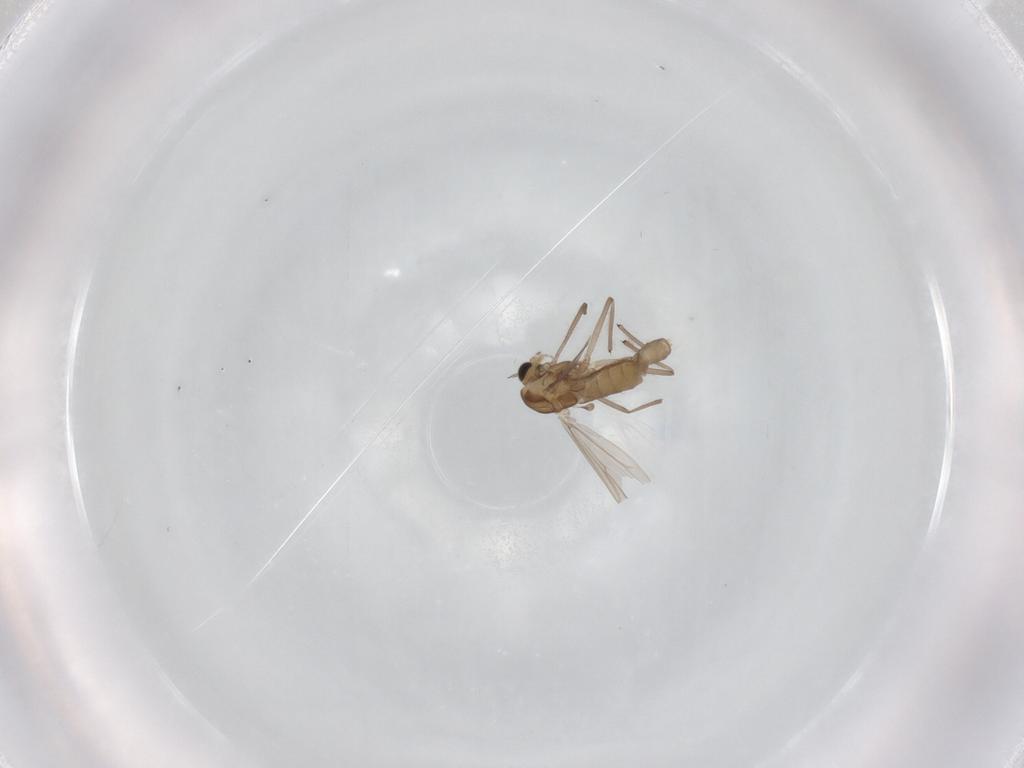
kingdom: Animalia
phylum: Arthropoda
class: Insecta
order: Diptera
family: Chironomidae
